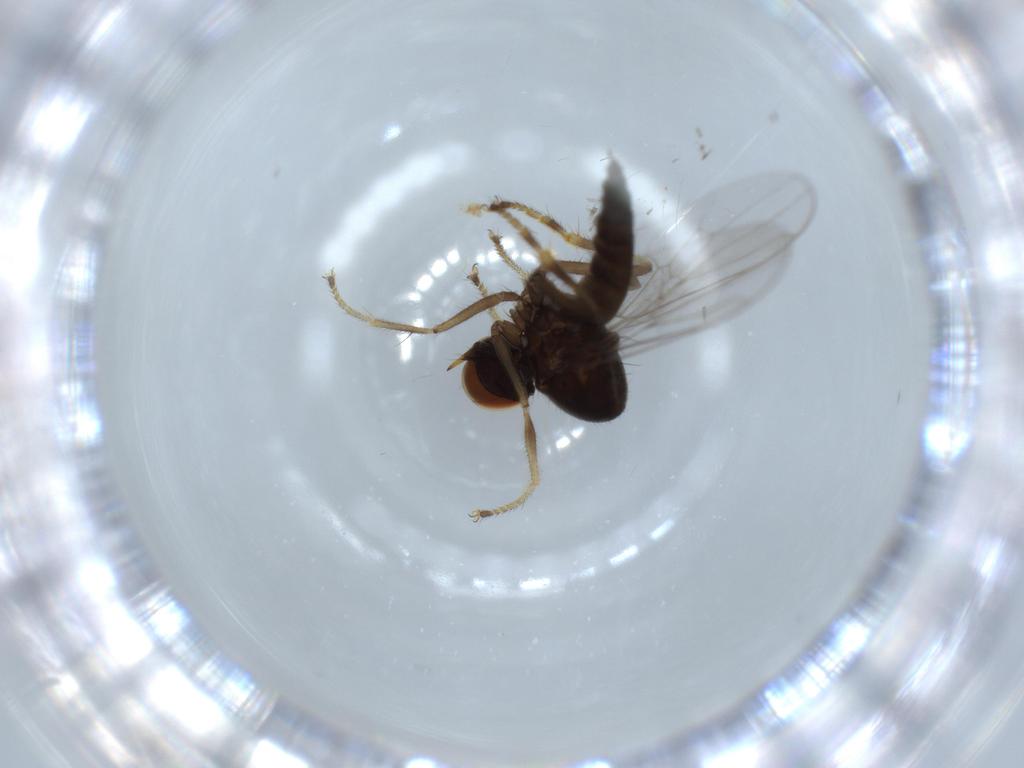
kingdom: Animalia
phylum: Arthropoda
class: Insecta
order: Diptera
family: Hybotidae
